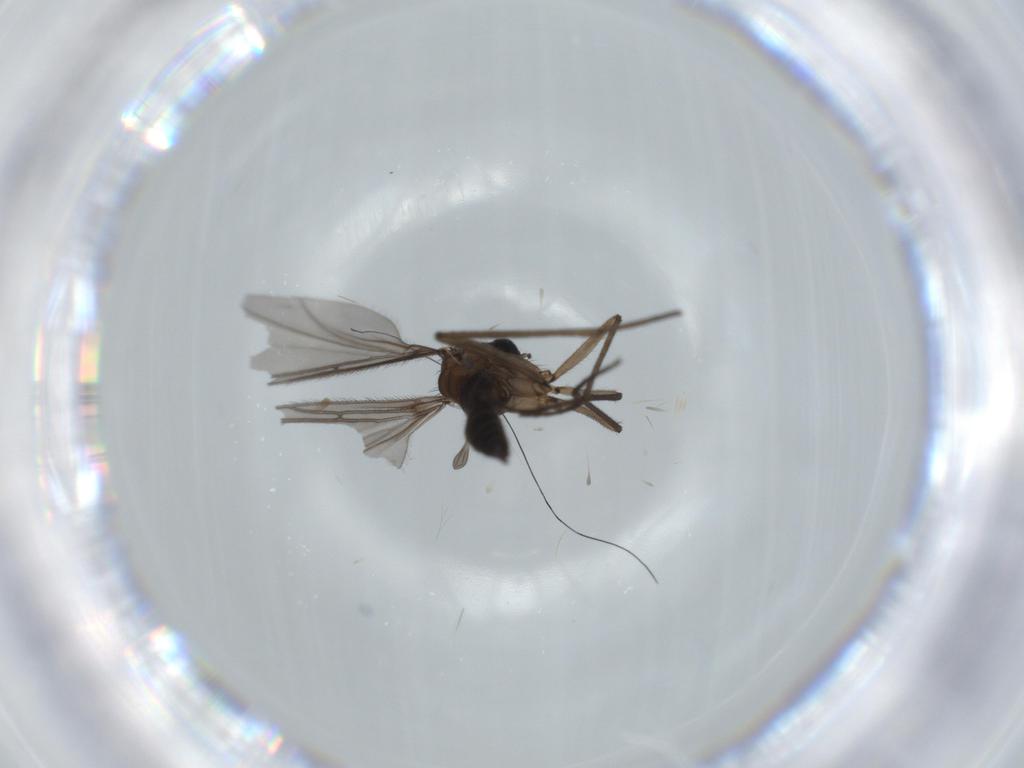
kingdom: Animalia
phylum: Arthropoda
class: Insecta
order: Diptera
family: Sciaridae
